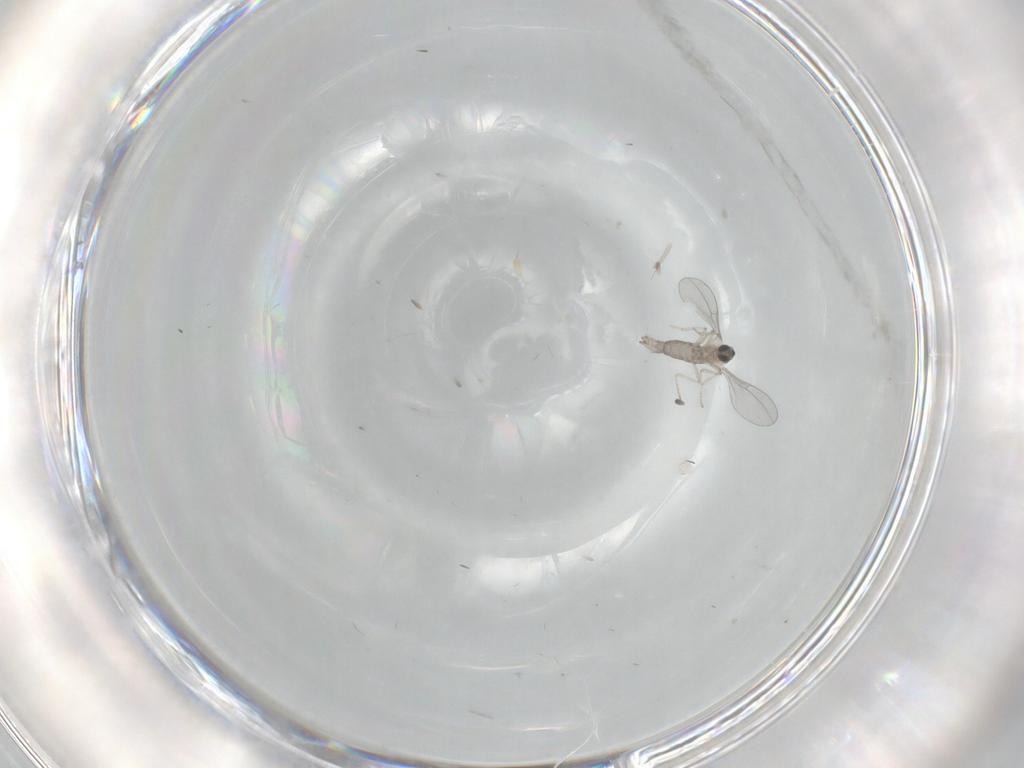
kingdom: Animalia
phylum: Arthropoda
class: Insecta
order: Diptera
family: Cecidomyiidae
